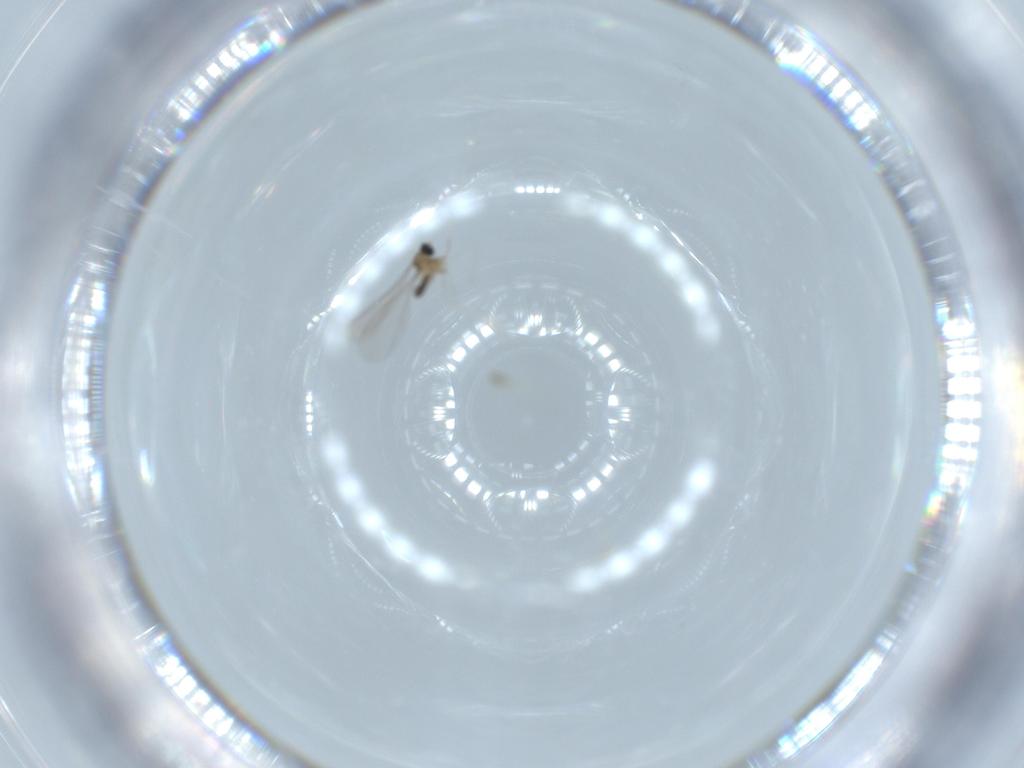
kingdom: Animalia
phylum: Arthropoda
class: Insecta
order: Diptera
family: Cecidomyiidae
